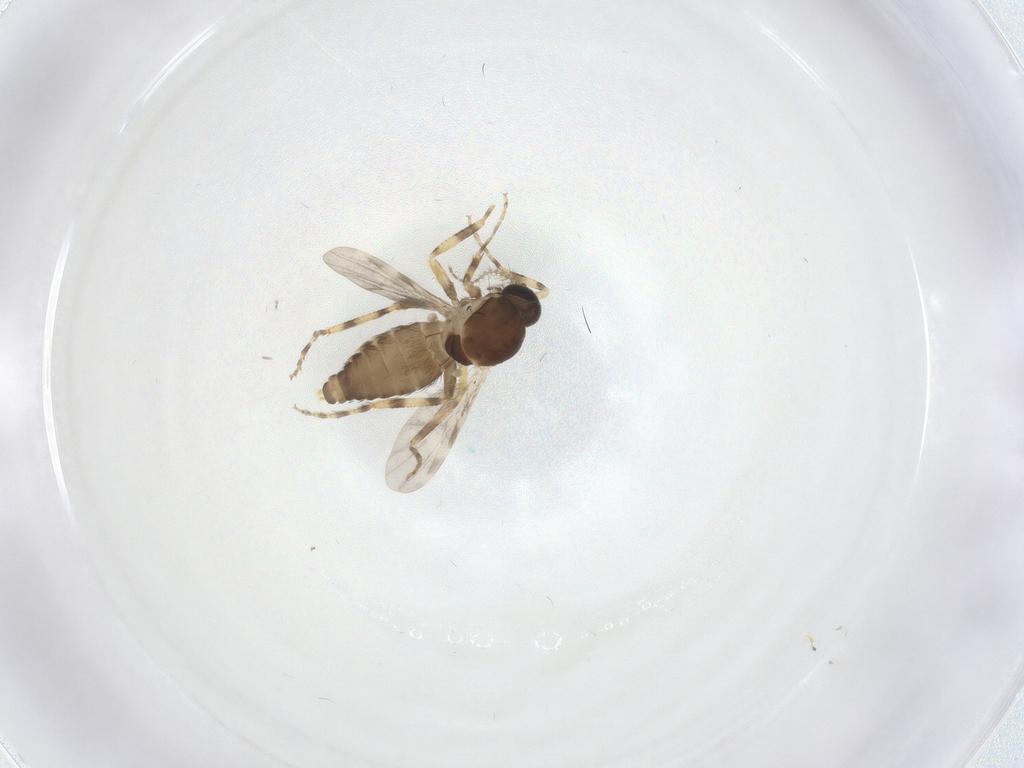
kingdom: Animalia
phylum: Arthropoda
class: Insecta
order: Diptera
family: Ceratopogonidae
